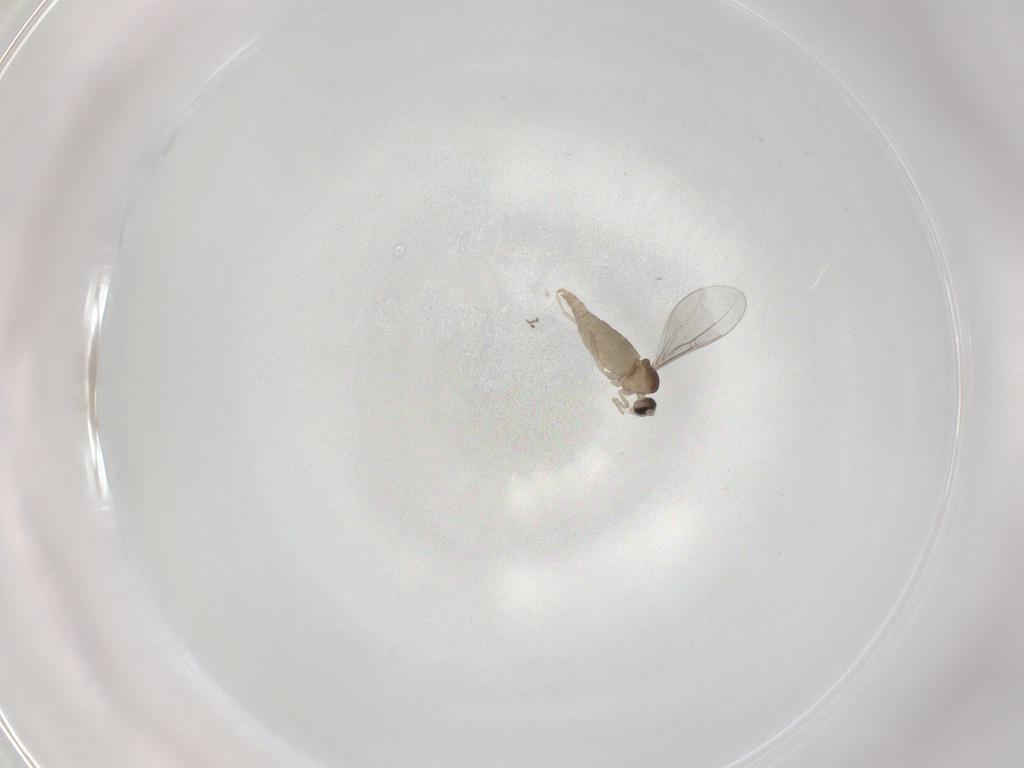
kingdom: Animalia
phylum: Arthropoda
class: Insecta
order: Diptera
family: Cecidomyiidae
